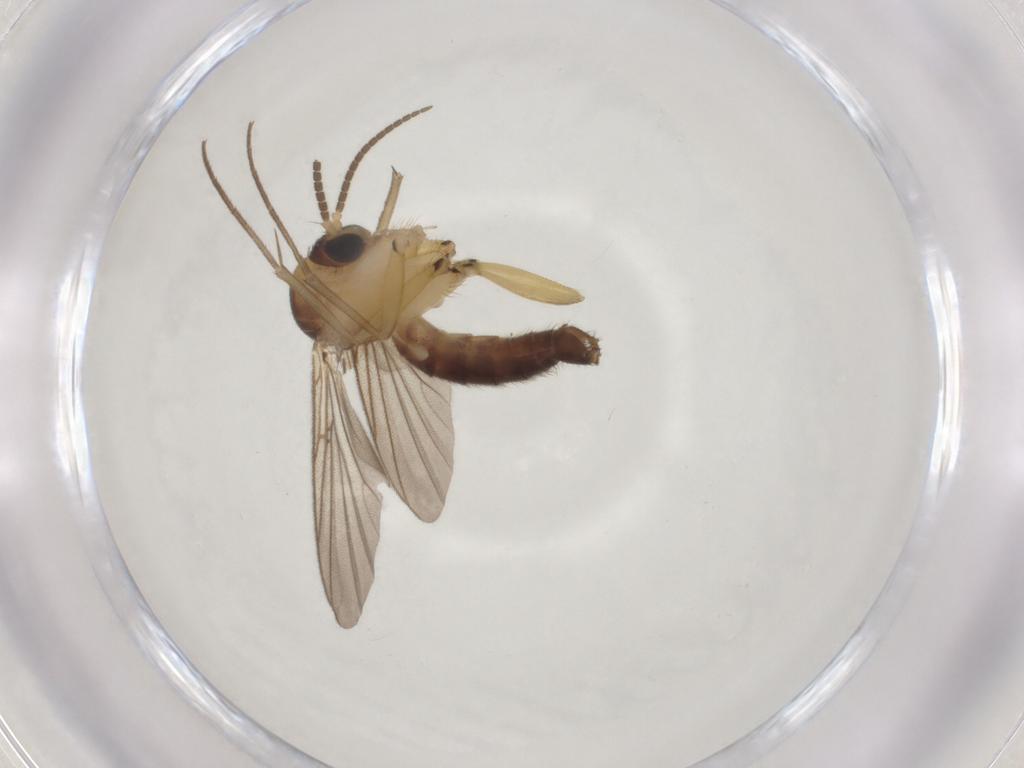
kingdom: Animalia
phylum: Arthropoda
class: Insecta
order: Diptera
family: Mycetophilidae
